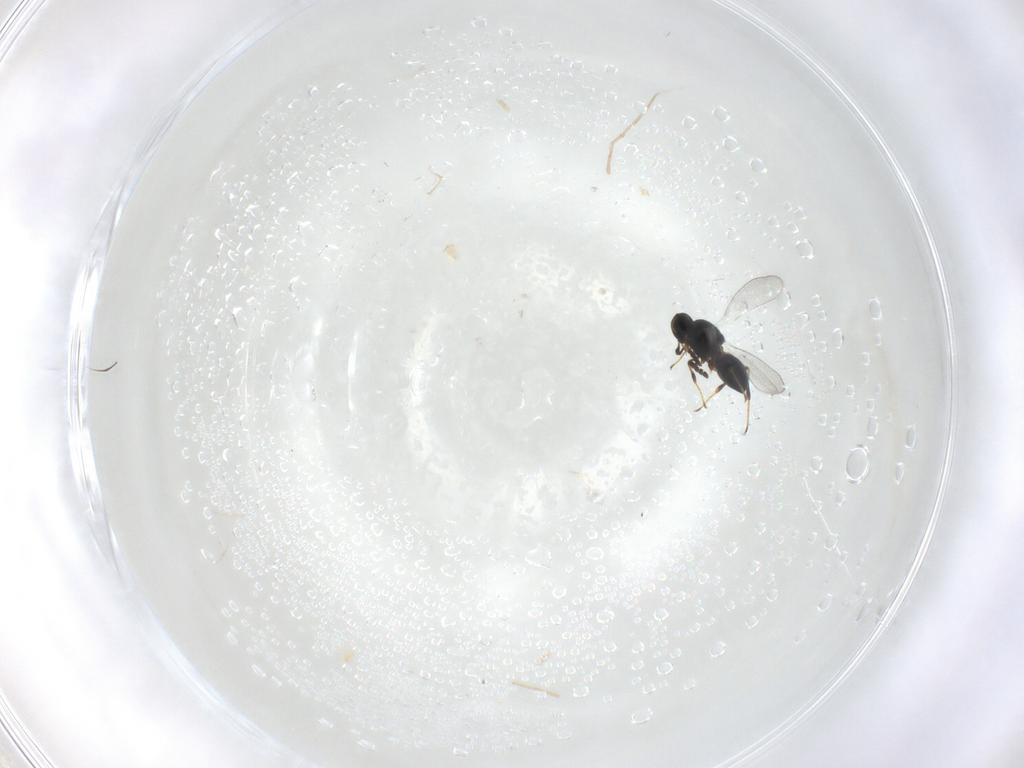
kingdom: Animalia
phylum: Arthropoda
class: Insecta
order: Hymenoptera
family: Platygastridae
